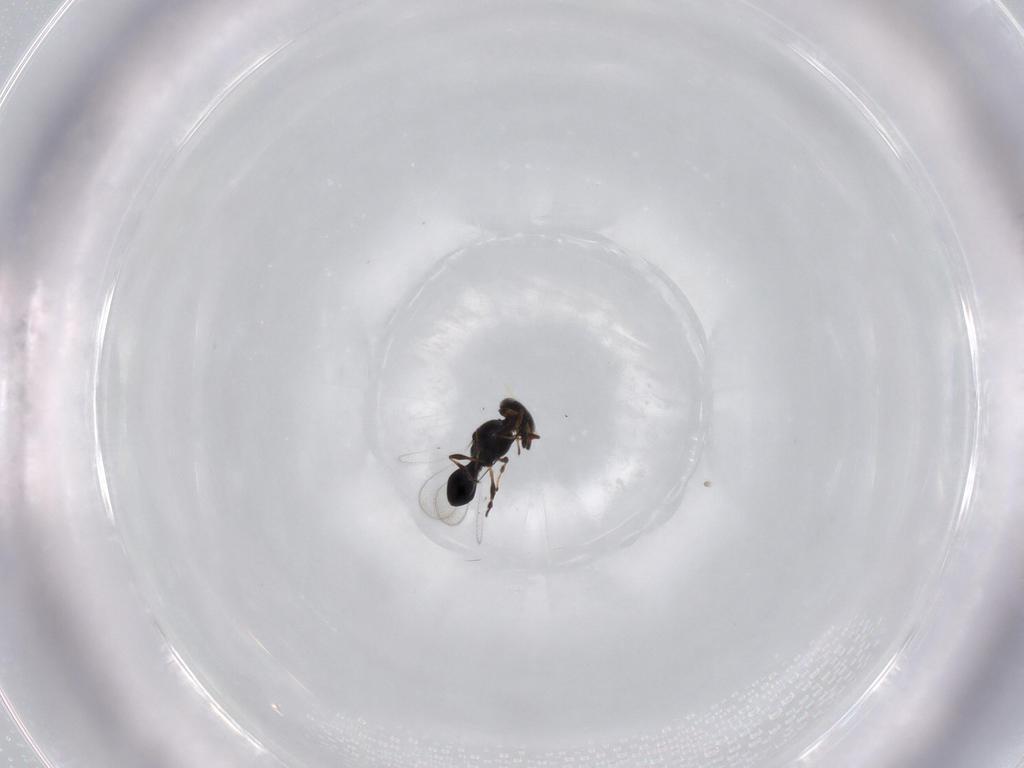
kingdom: Animalia
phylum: Arthropoda
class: Insecta
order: Hymenoptera
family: Platygastridae
